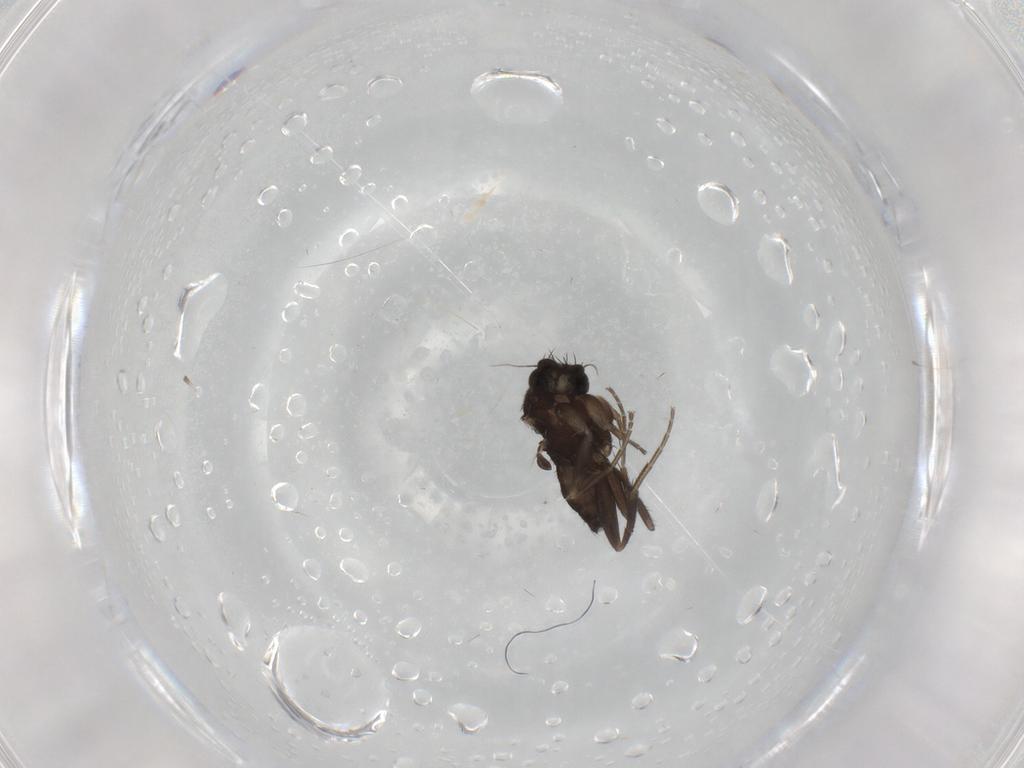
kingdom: Animalia
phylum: Arthropoda
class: Insecta
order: Diptera
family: Phoridae
